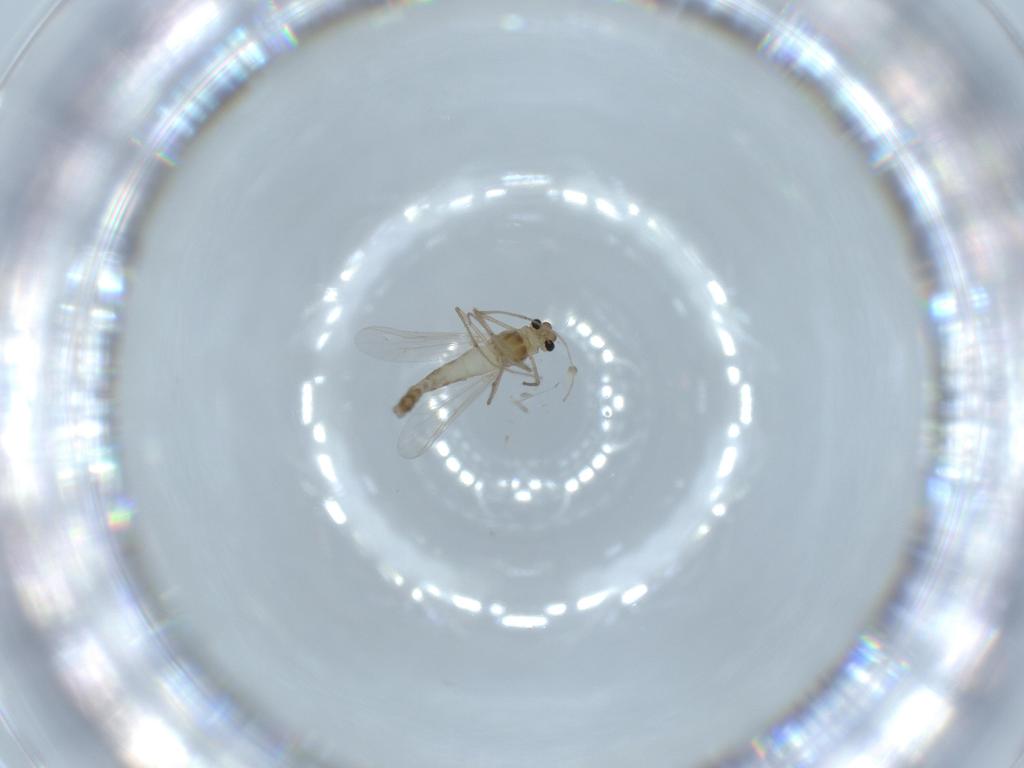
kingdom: Animalia
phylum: Arthropoda
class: Insecta
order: Diptera
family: Chironomidae
